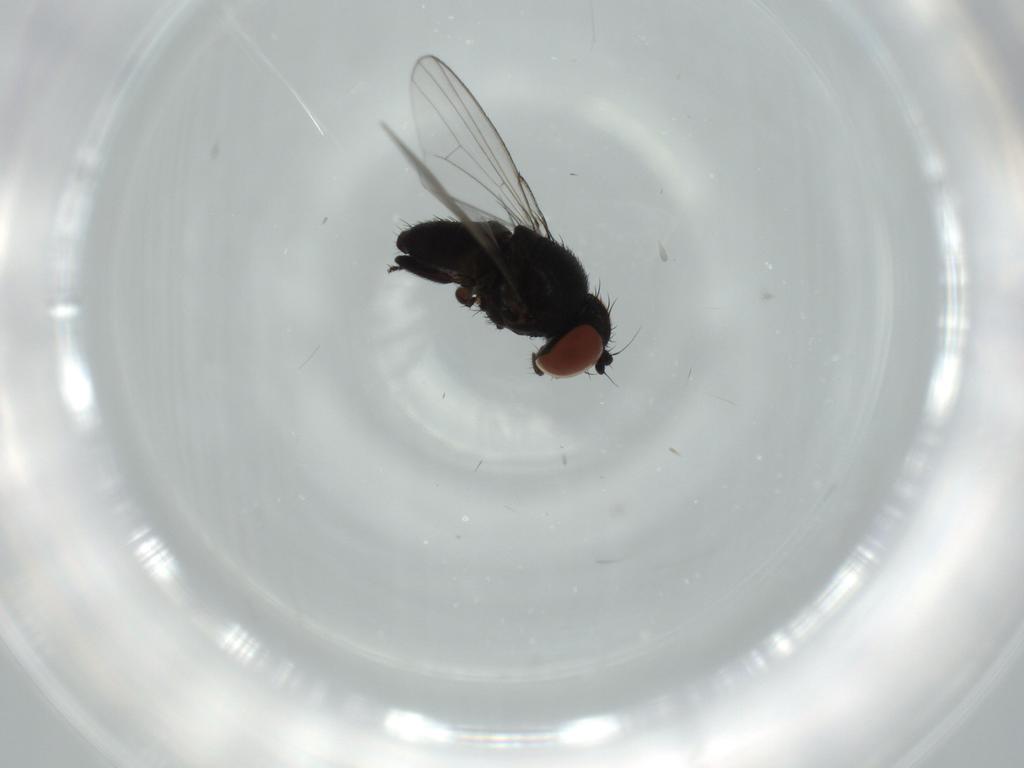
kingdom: Animalia
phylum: Arthropoda
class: Insecta
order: Diptera
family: Milichiidae
